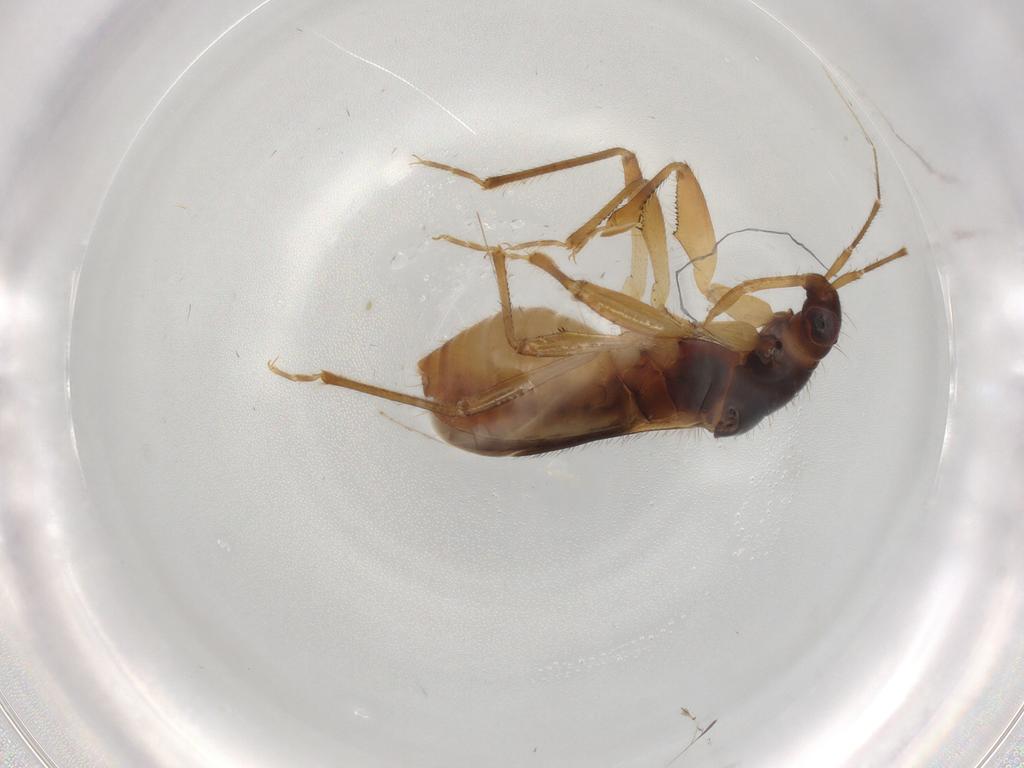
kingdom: Animalia
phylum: Arthropoda
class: Insecta
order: Hemiptera
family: Nabidae
